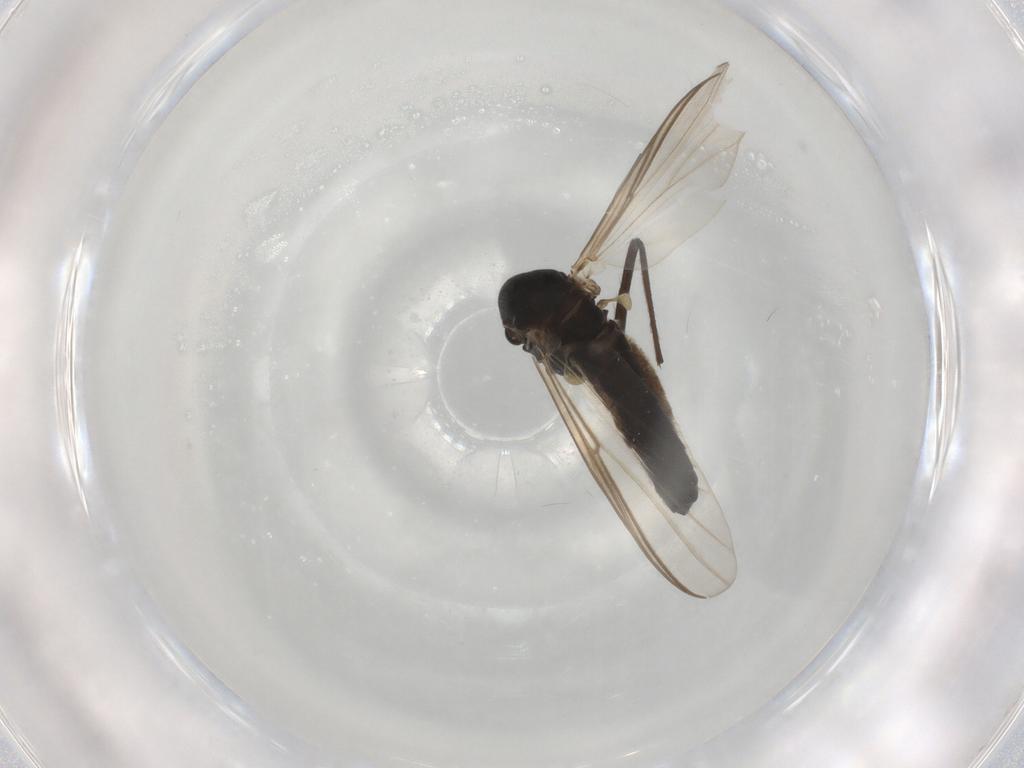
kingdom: Animalia
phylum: Arthropoda
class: Insecta
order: Diptera
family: Chironomidae
